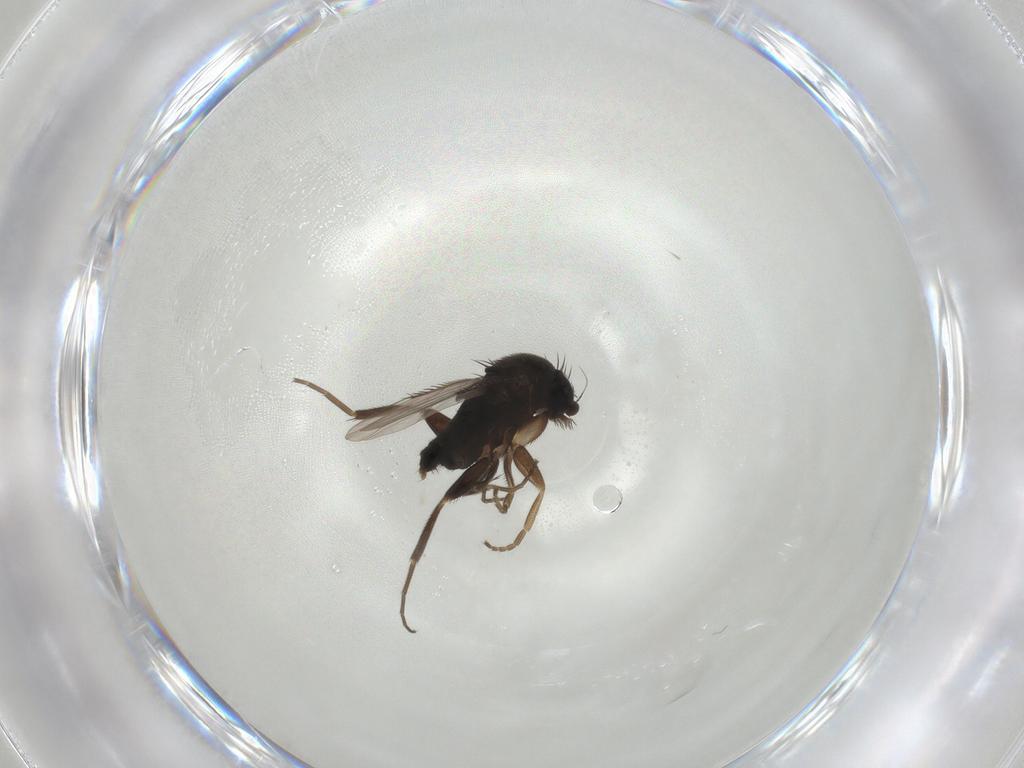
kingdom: Animalia
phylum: Arthropoda
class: Insecta
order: Diptera
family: Phoridae
